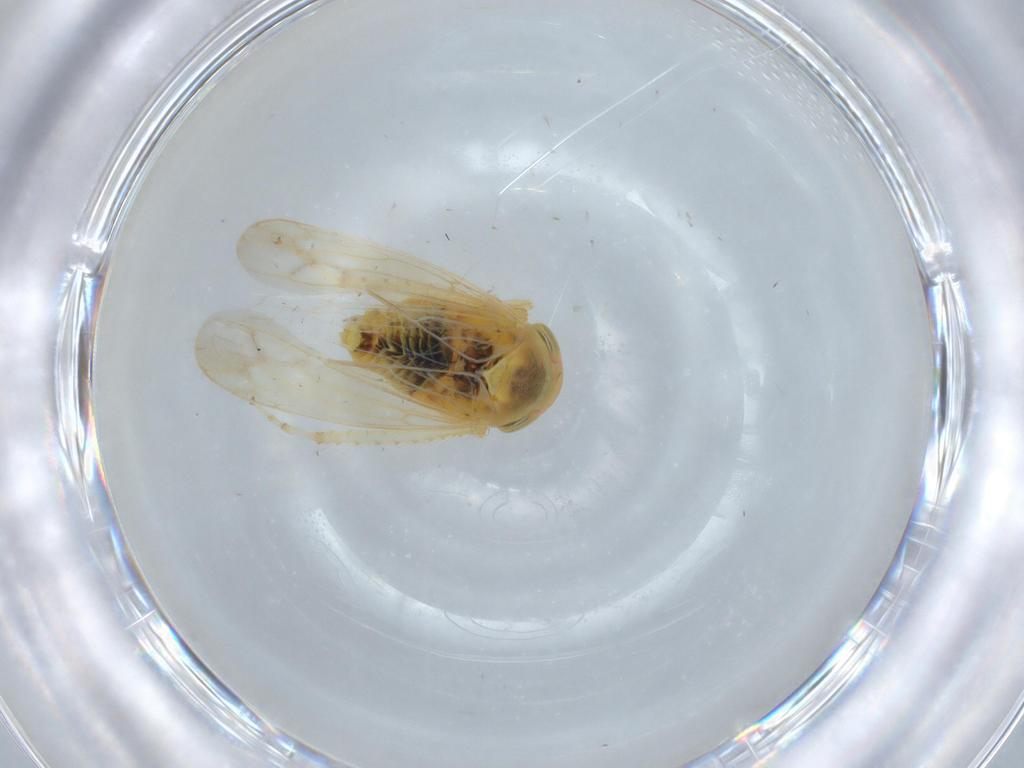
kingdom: Animalia
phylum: Arthropoda
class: Insecta
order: Hemiptera
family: Cicadellidae
